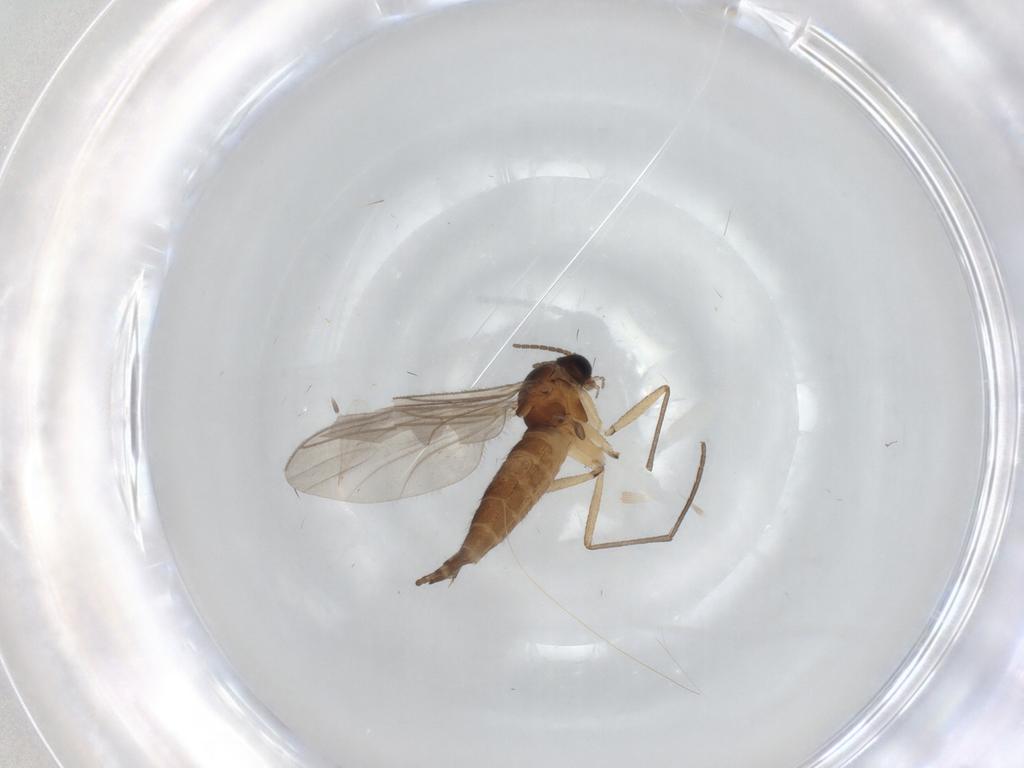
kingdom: Animalia
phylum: Arthropoda
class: Insecta
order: Diptera
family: Sciaridae
